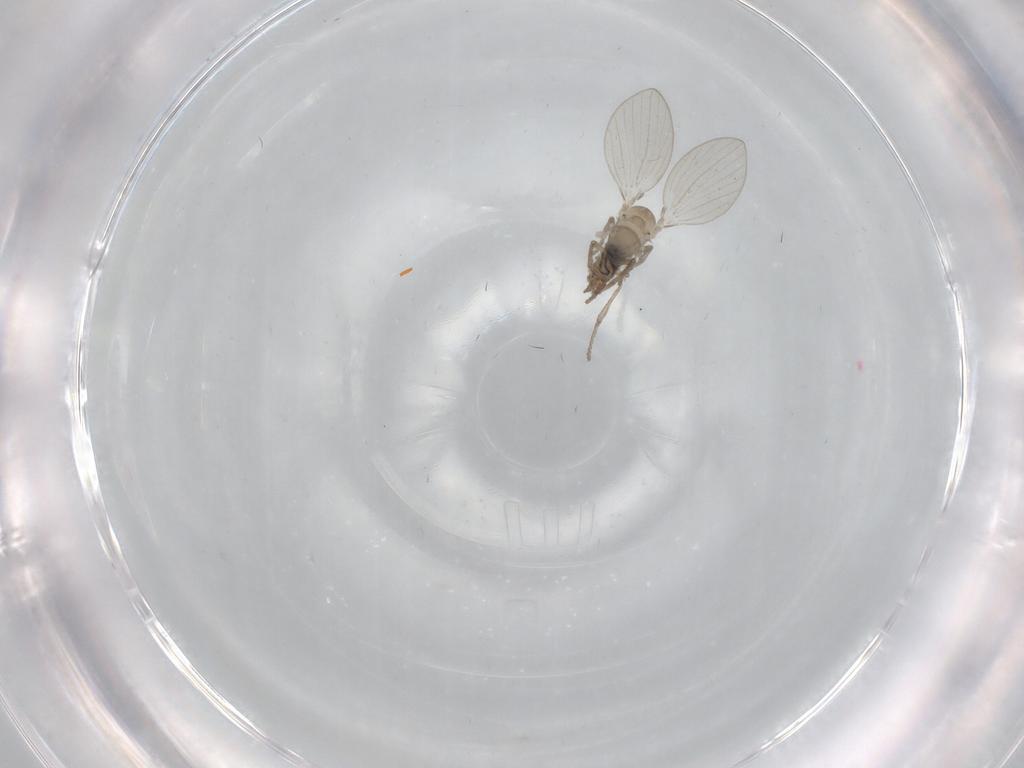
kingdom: Animalia
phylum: Arthropoda
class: Insecta
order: Diptera
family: Psychodidae
